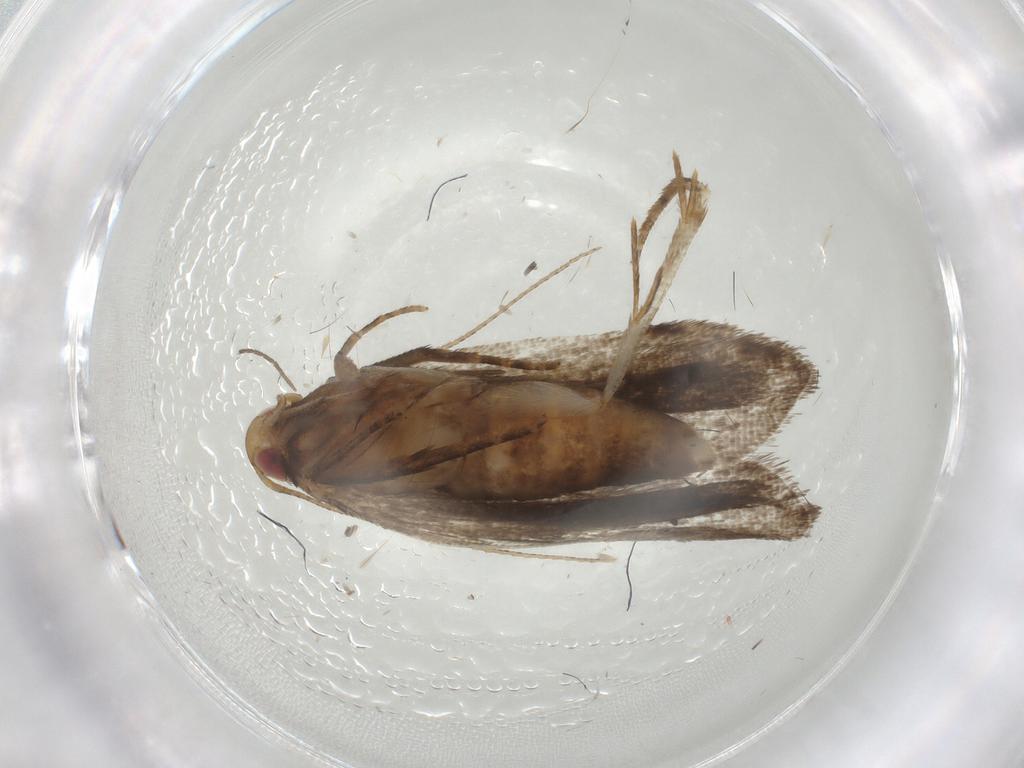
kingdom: Animalia
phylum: Arthropoda
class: Insecta
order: Lepidoptera
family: Gelechiidae
